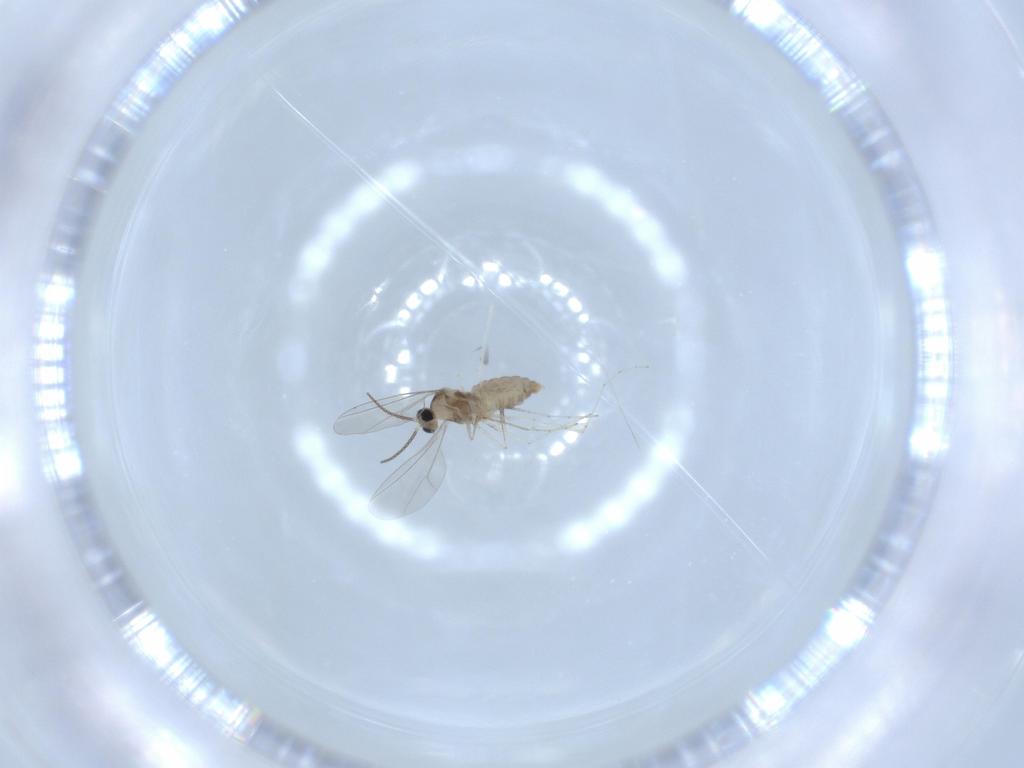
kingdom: Animalia
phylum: Arthropoda
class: Insecta
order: Diptera
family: Cecidomyiidae
